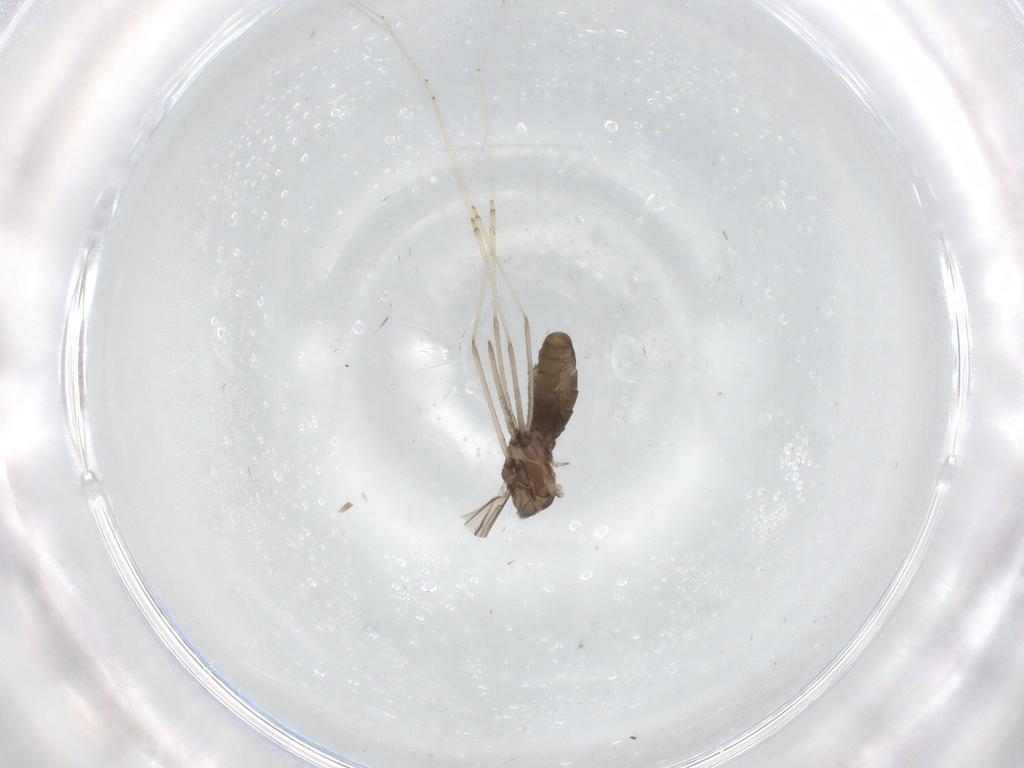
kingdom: Animalia
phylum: Arthropoda
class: Insecta
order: Diptera
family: Cecidomyiidae
